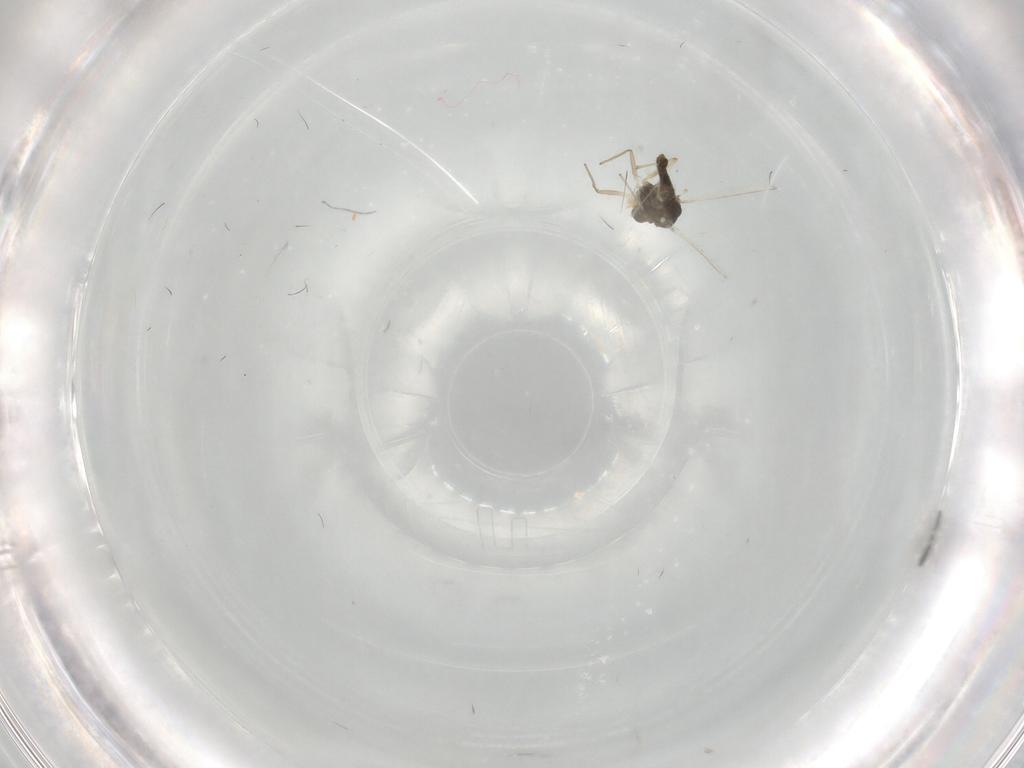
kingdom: Animalia
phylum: Arthropoda
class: Insecta
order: Diptera
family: Chironomidae
